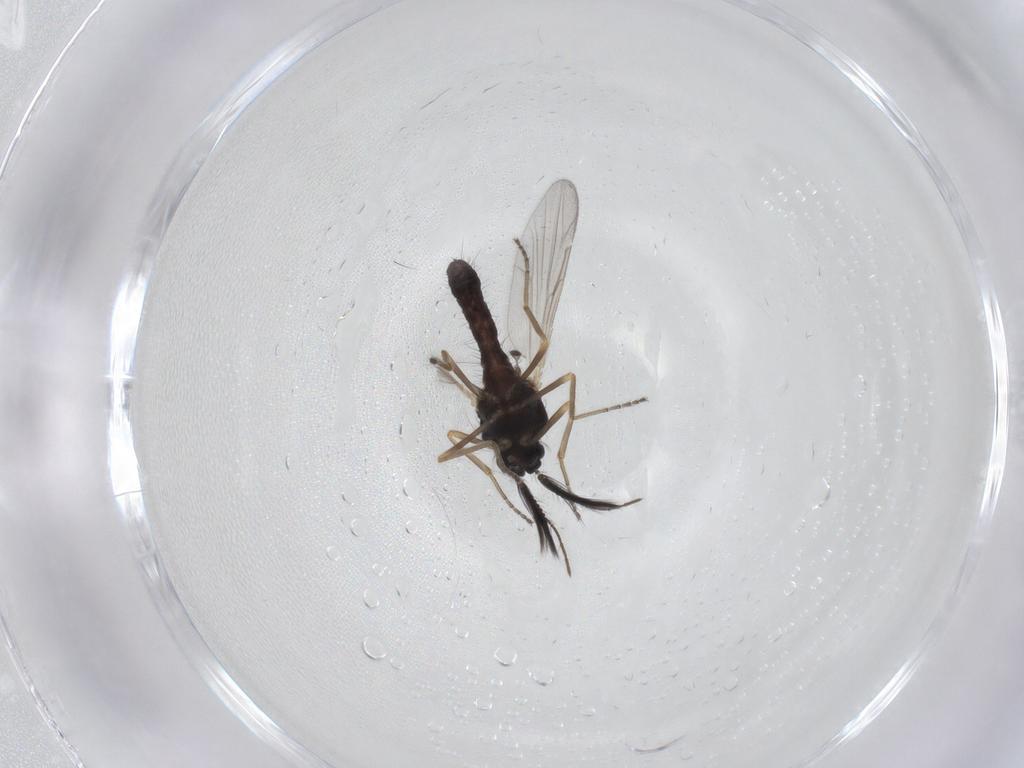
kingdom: Animalia
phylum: Arthropoda
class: Insecta
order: Diptera
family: Ceratopogonidae
